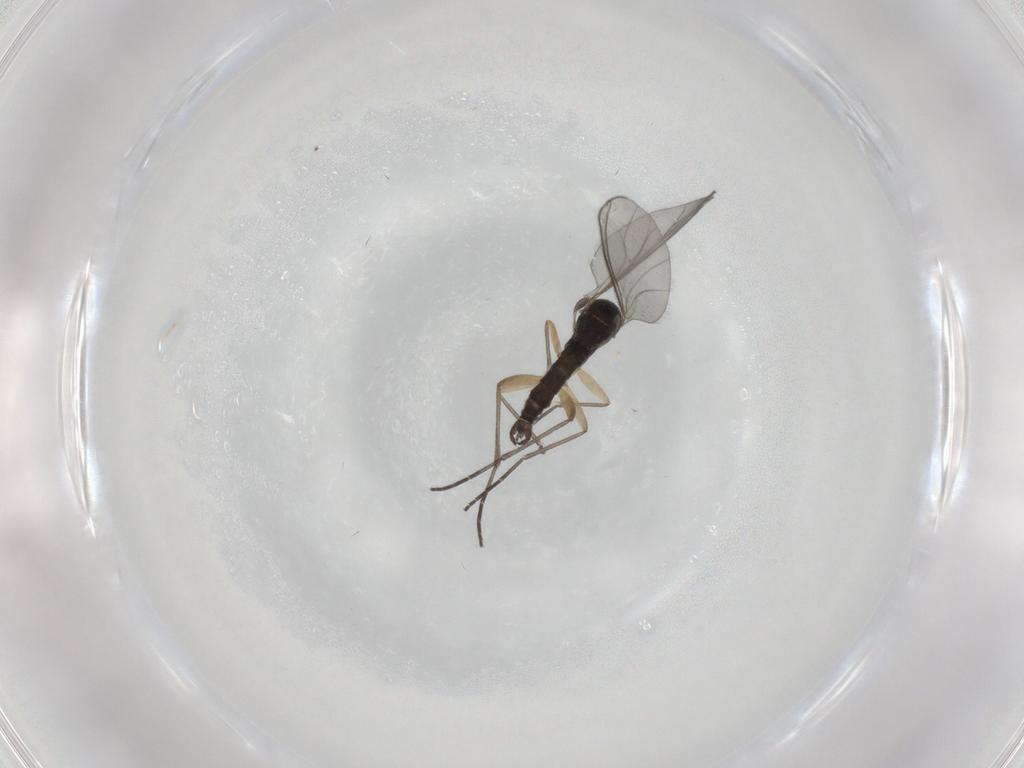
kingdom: Animalia
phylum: Arthropoda
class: Insecta
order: Diptera
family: Sciaridae
